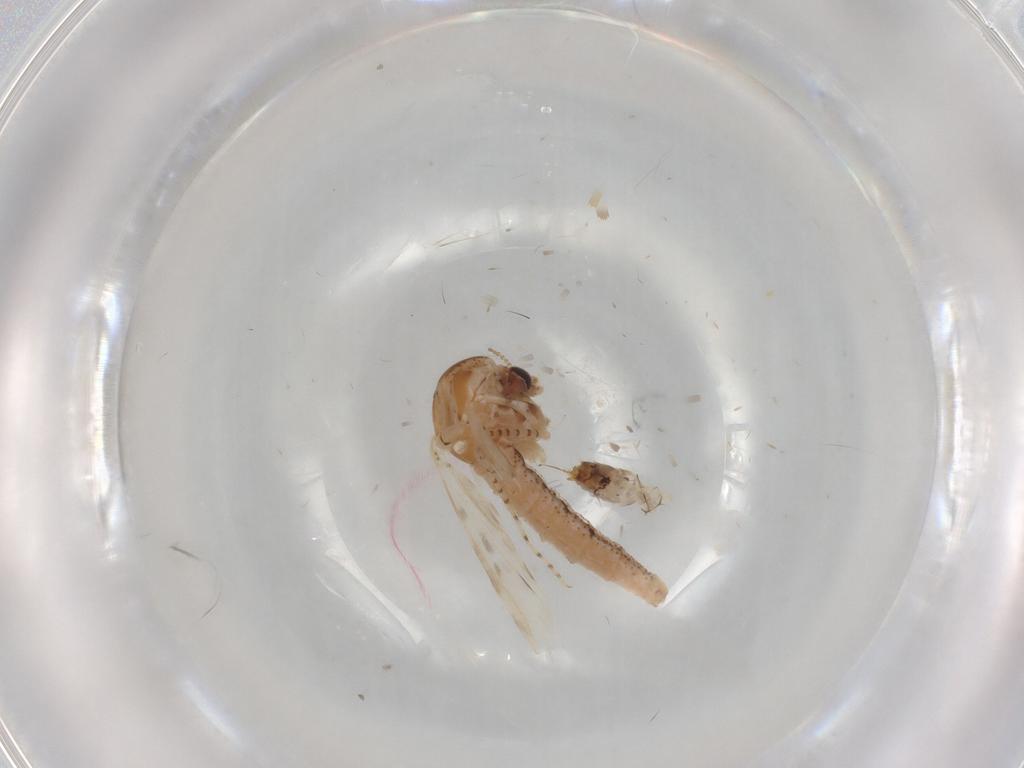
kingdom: Animalia
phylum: Arthropoda
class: Insecta
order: Diptera
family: Chaoboridae
